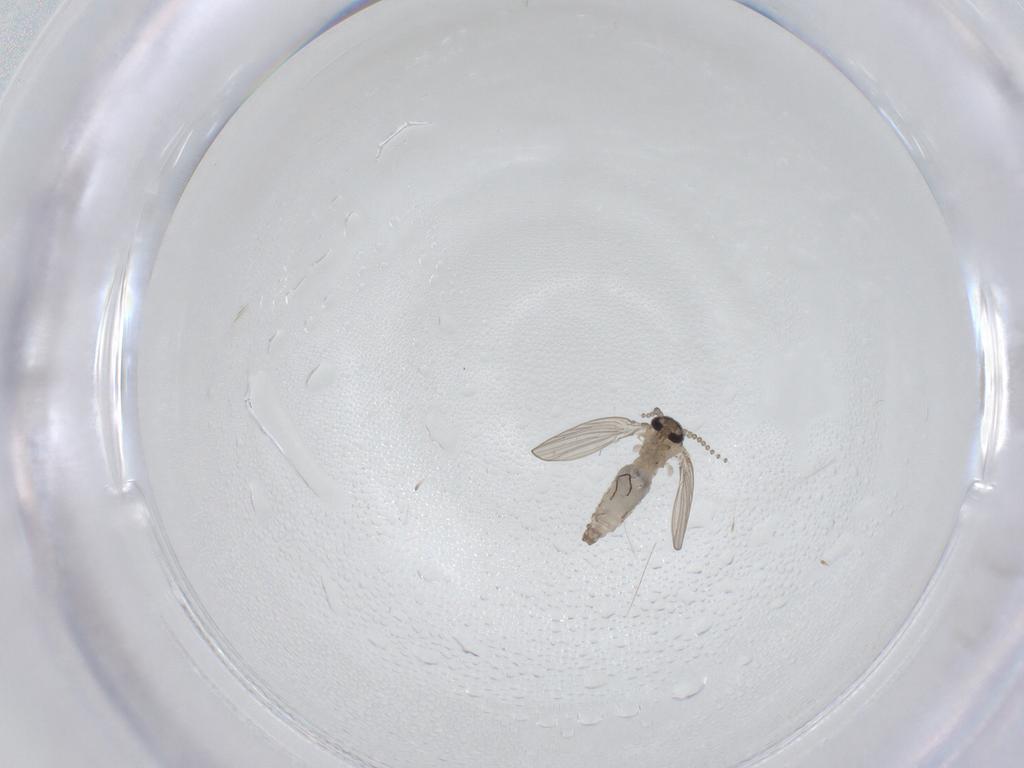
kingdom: Animalia
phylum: Arthropoda
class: Insecta
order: Diptera
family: Psychodidae
